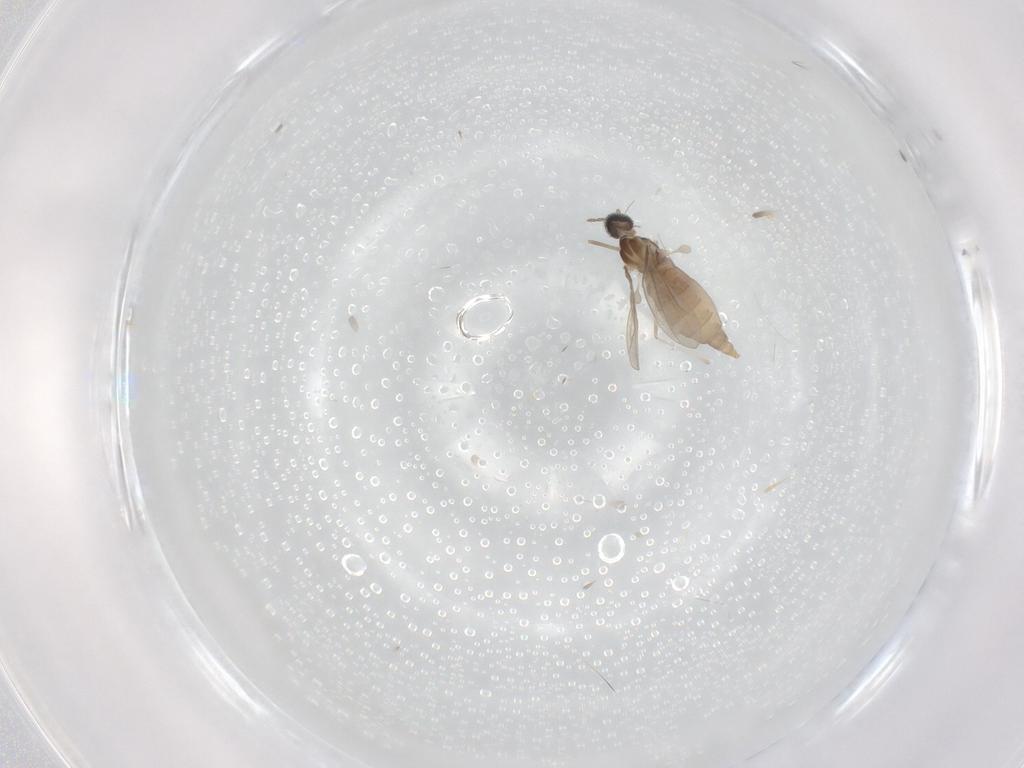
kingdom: Animalia
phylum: Arthropoda
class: Insecta
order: Diptera
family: Cecidomyiidae
